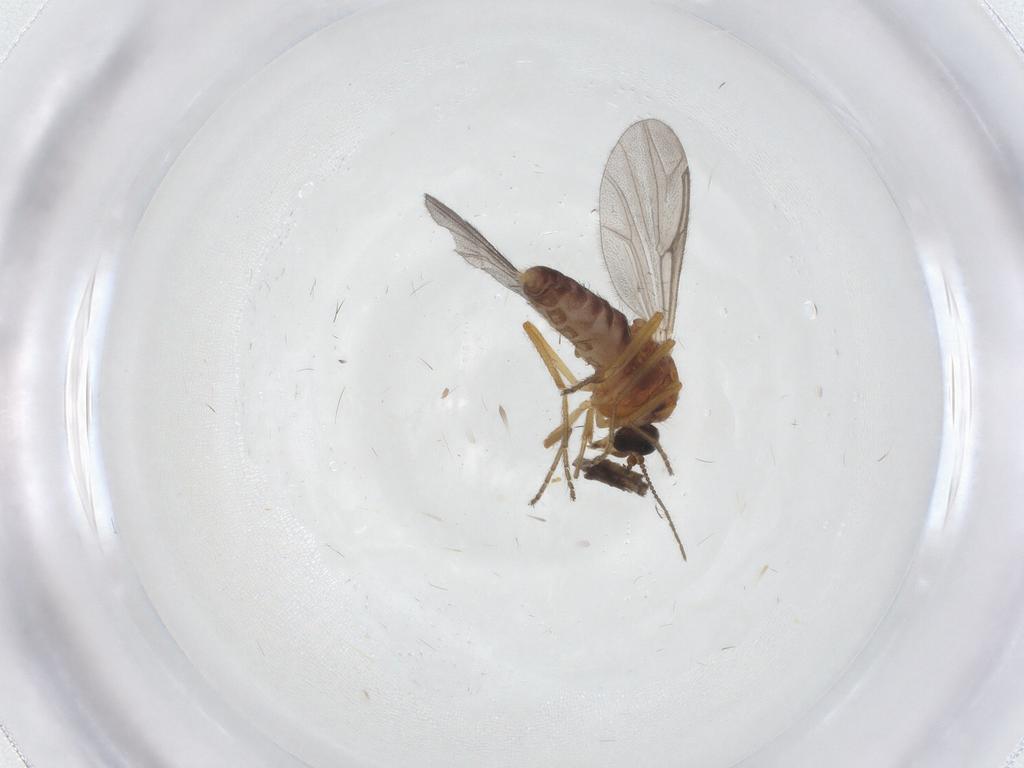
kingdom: Animalia
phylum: Arthropoda
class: Insecta
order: Diptera
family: Ceratopogonidae
